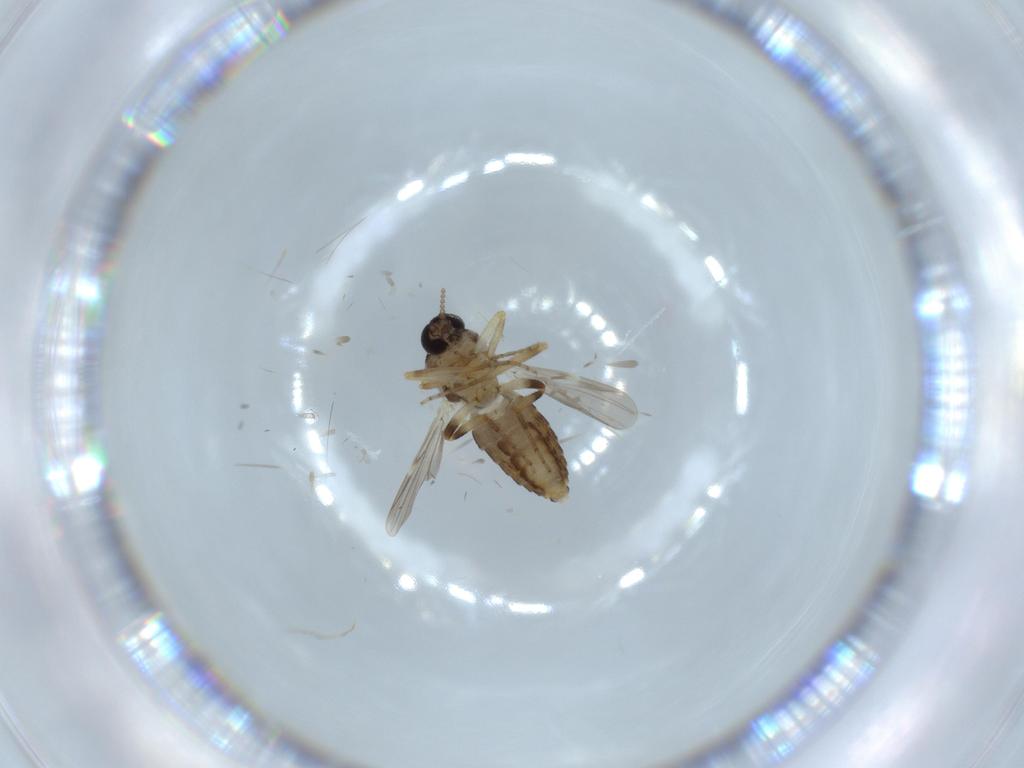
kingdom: Animalia
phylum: Arthropoda
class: Insecta
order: Diptera
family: Ceratopogonidae
